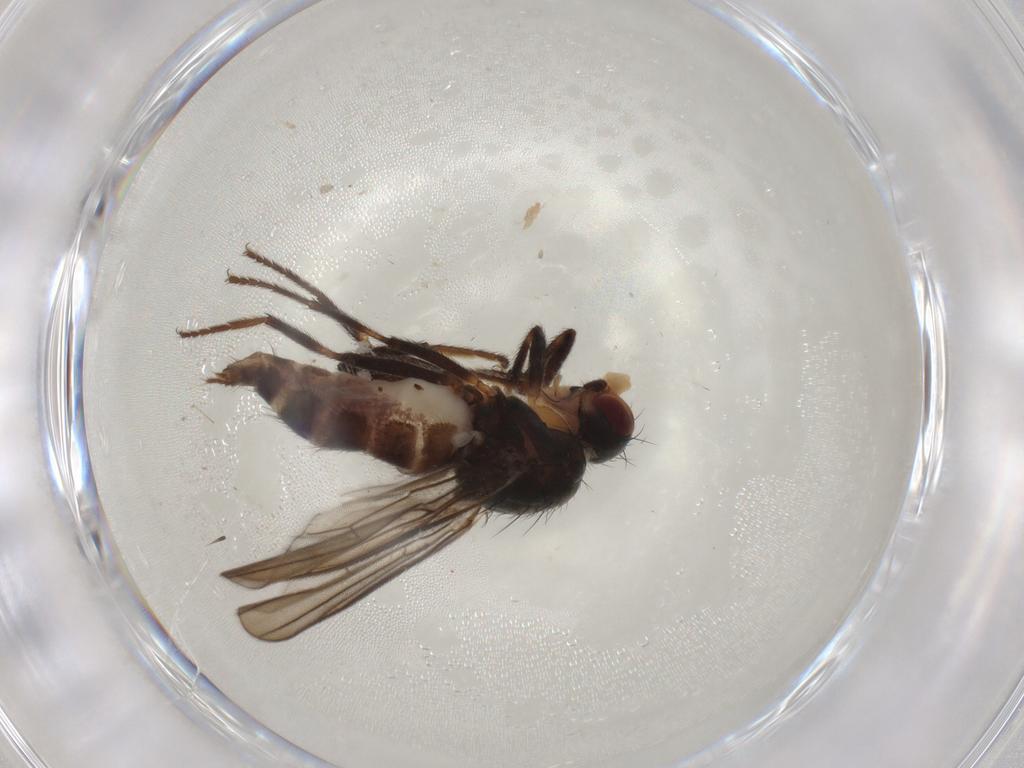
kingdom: Animalia
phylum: Arthropoda
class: Insecta
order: Diptera
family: Chloropidae
